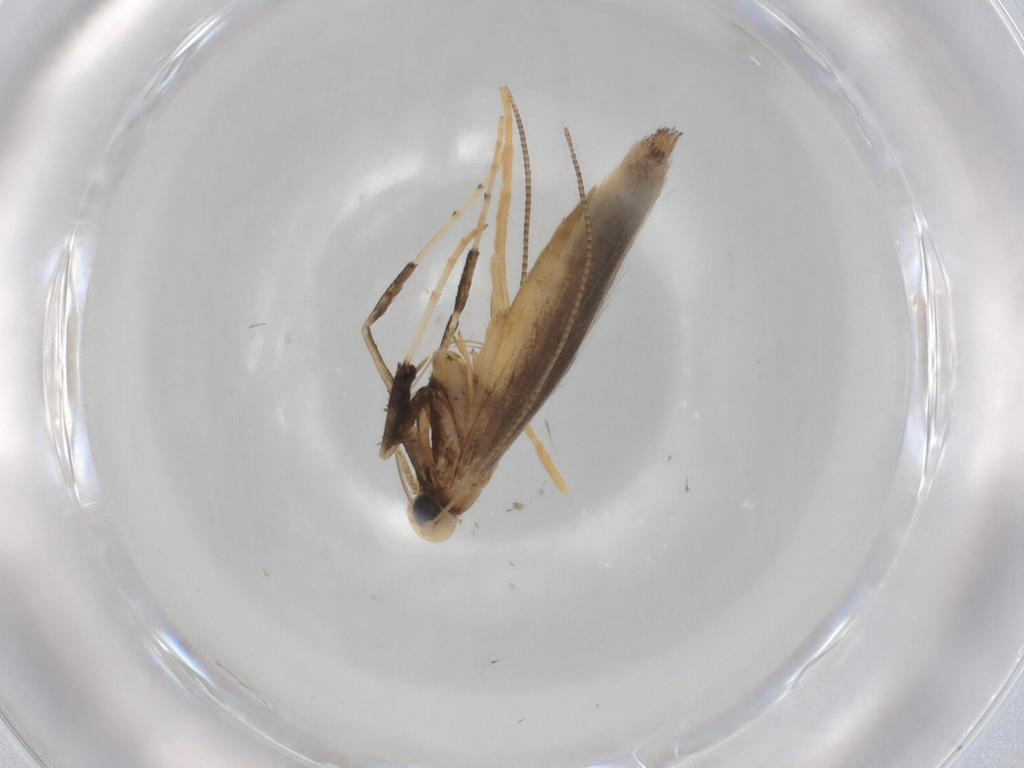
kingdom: Animalia
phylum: Arthropoda
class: Insecta
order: Lepidoptera
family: Gracillariidae
